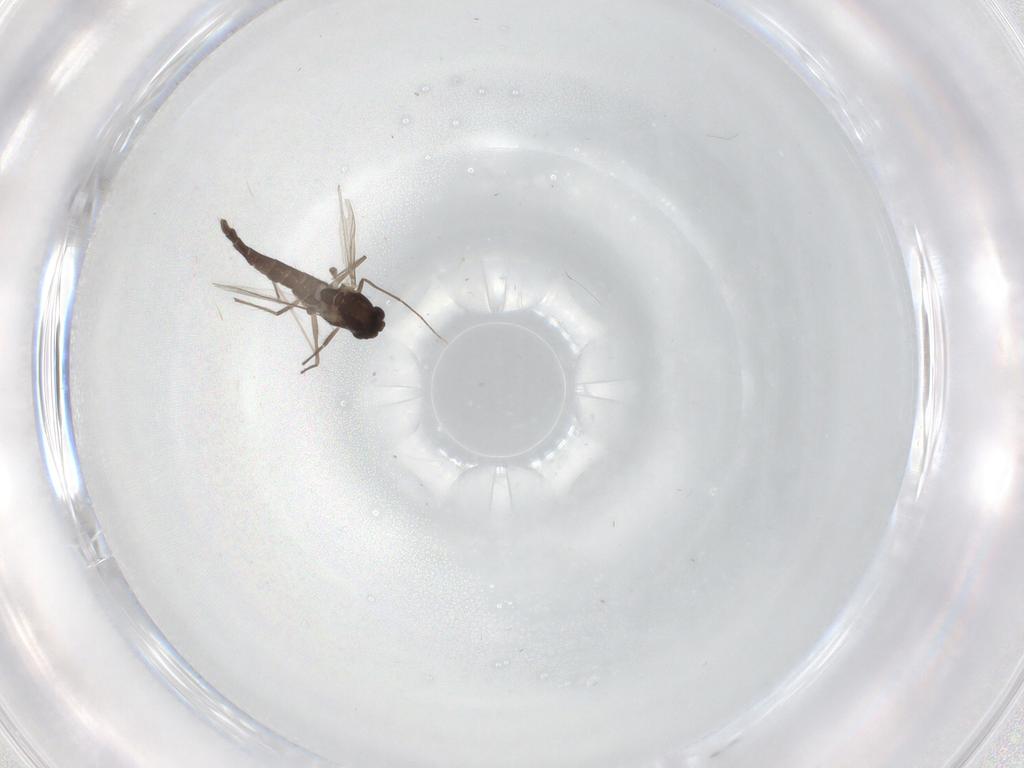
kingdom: Animalia
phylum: Arthropoda
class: Insecta
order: Diptera
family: Chironomidae
